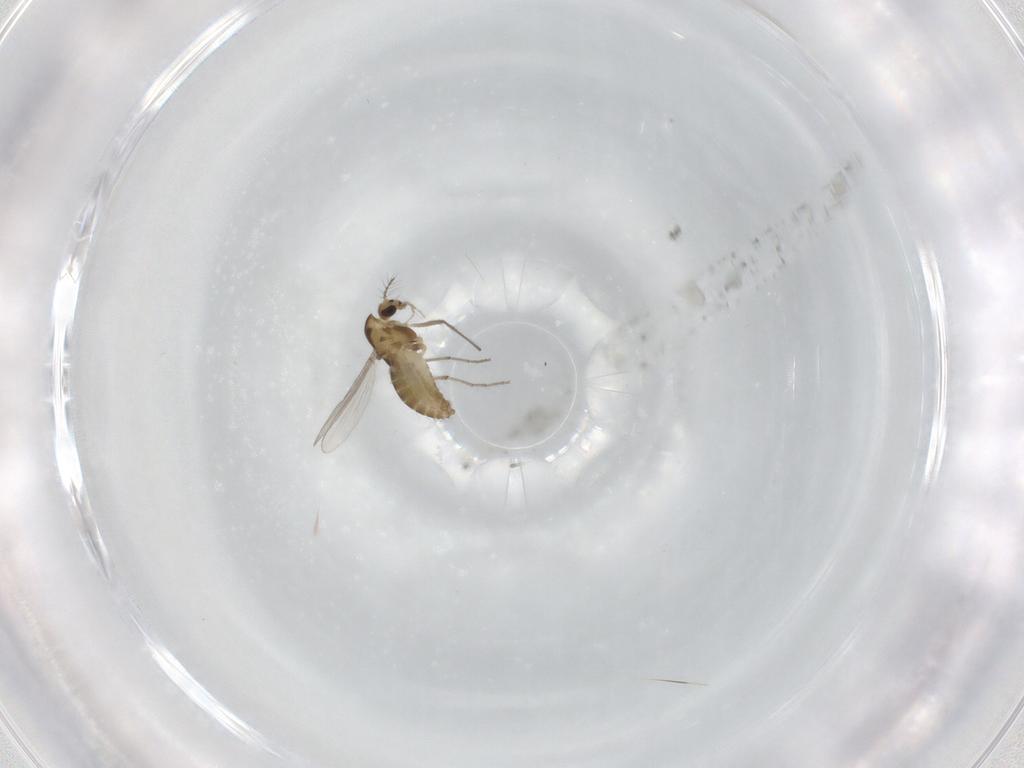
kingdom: Animalia
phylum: Arthropoda
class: Insecta
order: Diptera
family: Chironomidae
